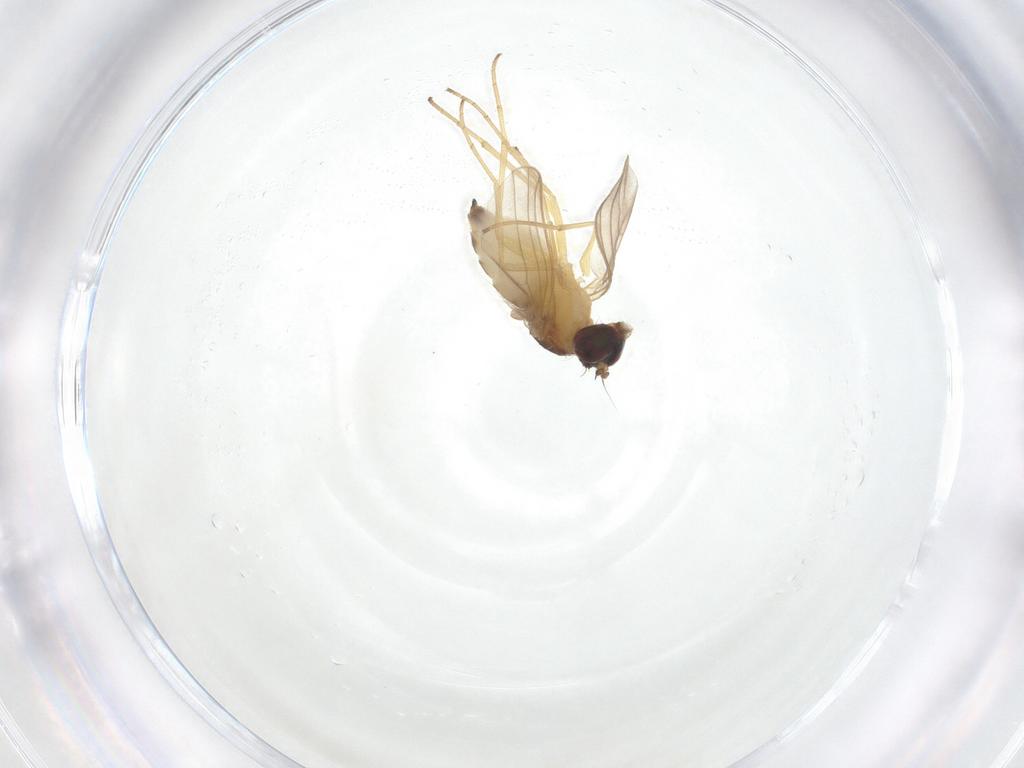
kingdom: Animalia
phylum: Arthropoda
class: Insecta
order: Diptera
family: Dolichopodidae
